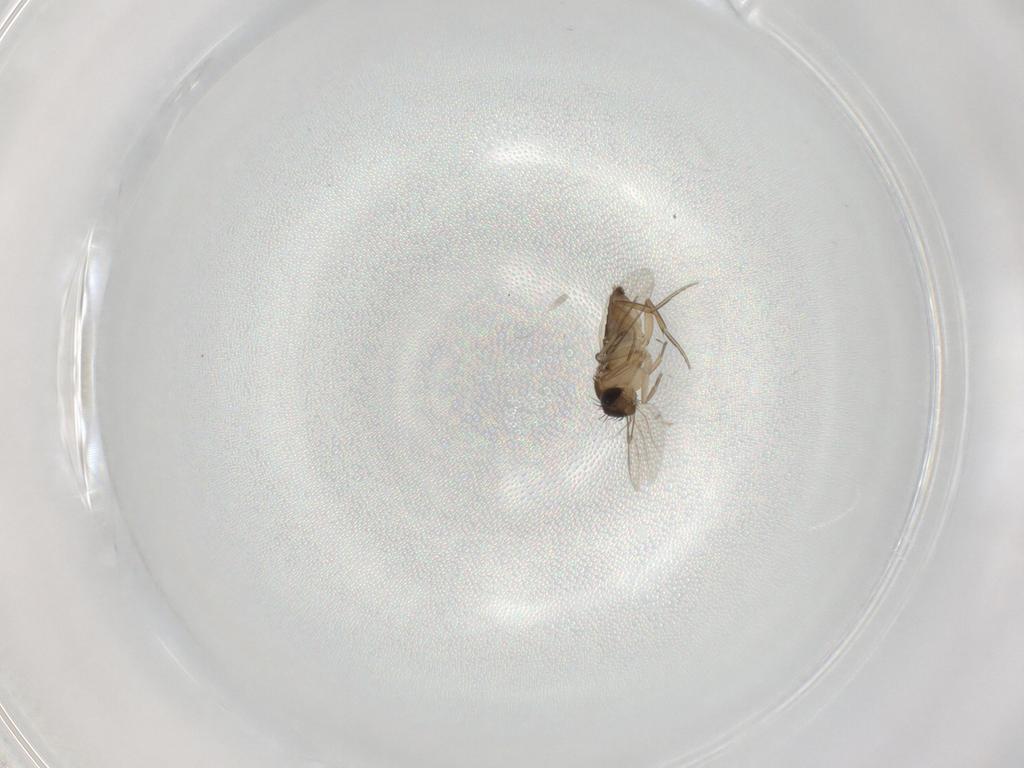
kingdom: Animalia
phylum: Arthropoda
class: Insecta
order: Diptera
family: Phoridae
